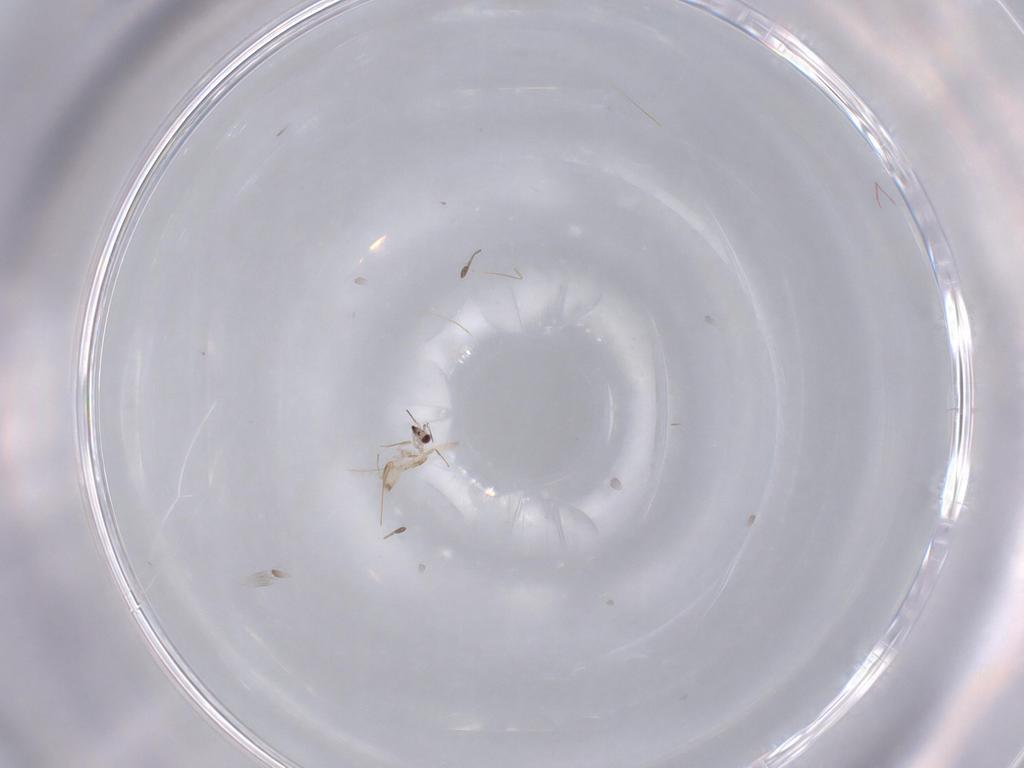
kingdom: Animalia
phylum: Arthropoda
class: Insecta
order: Hymenoptera
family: Mymaridae
